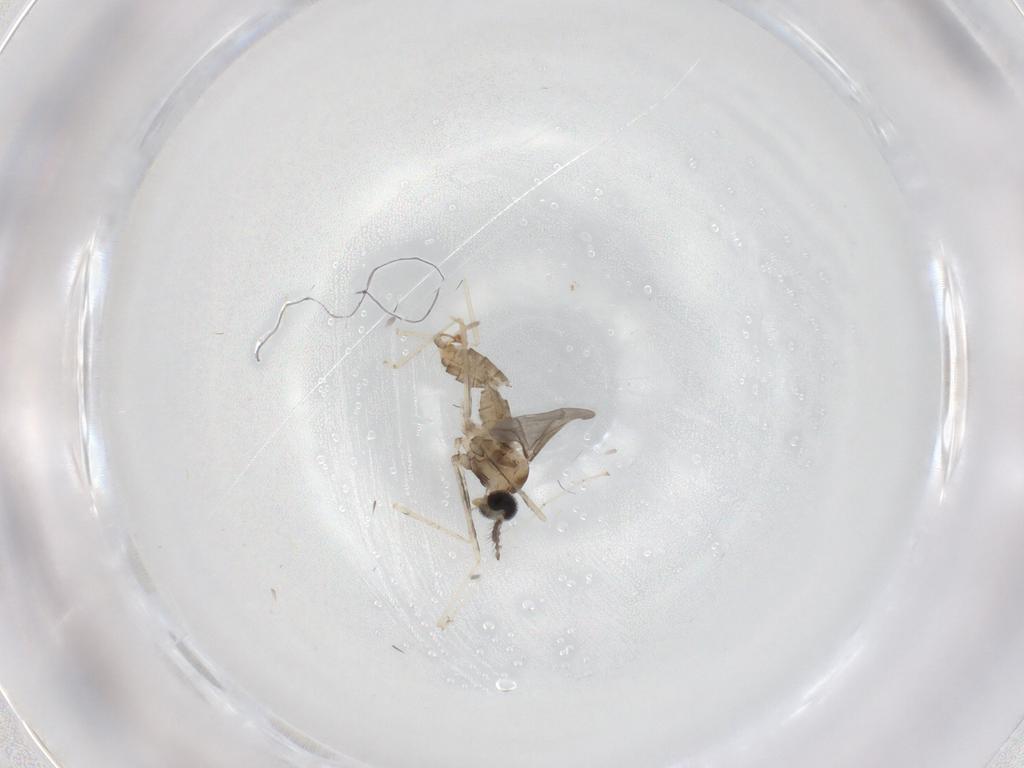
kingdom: Animalia
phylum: Arthropoda
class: Insecta
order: Diptera
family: Cecidomyiidae
